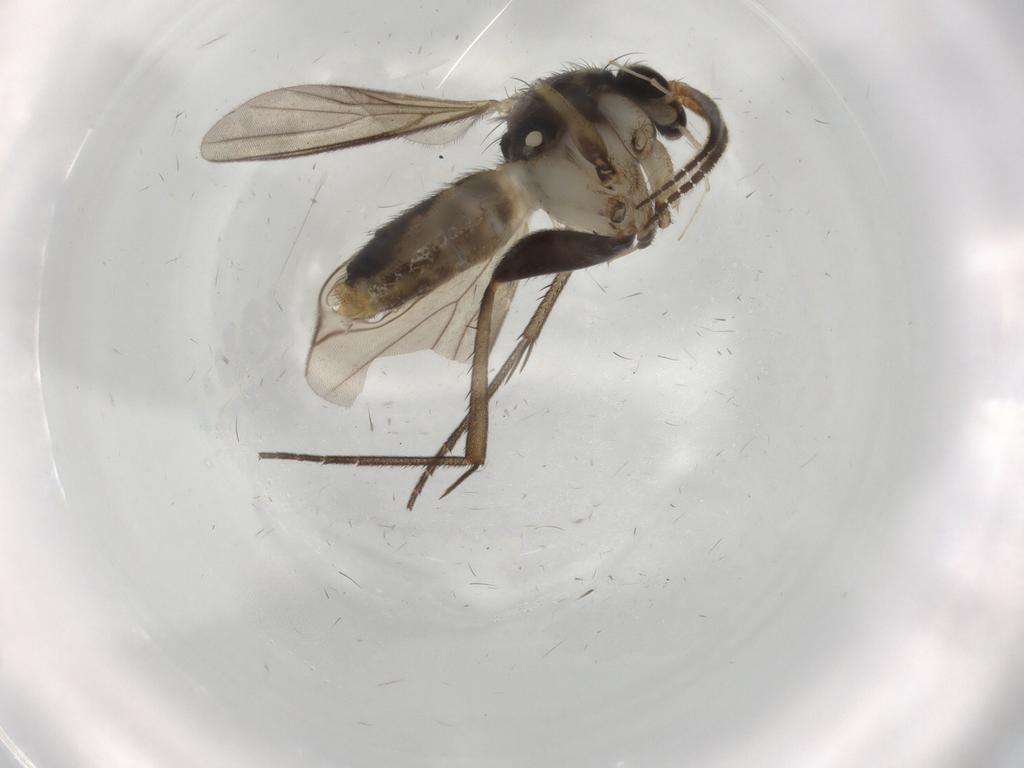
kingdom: Animalia
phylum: Arthropoda
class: Insecta
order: Diptera
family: Mycetophilidae
